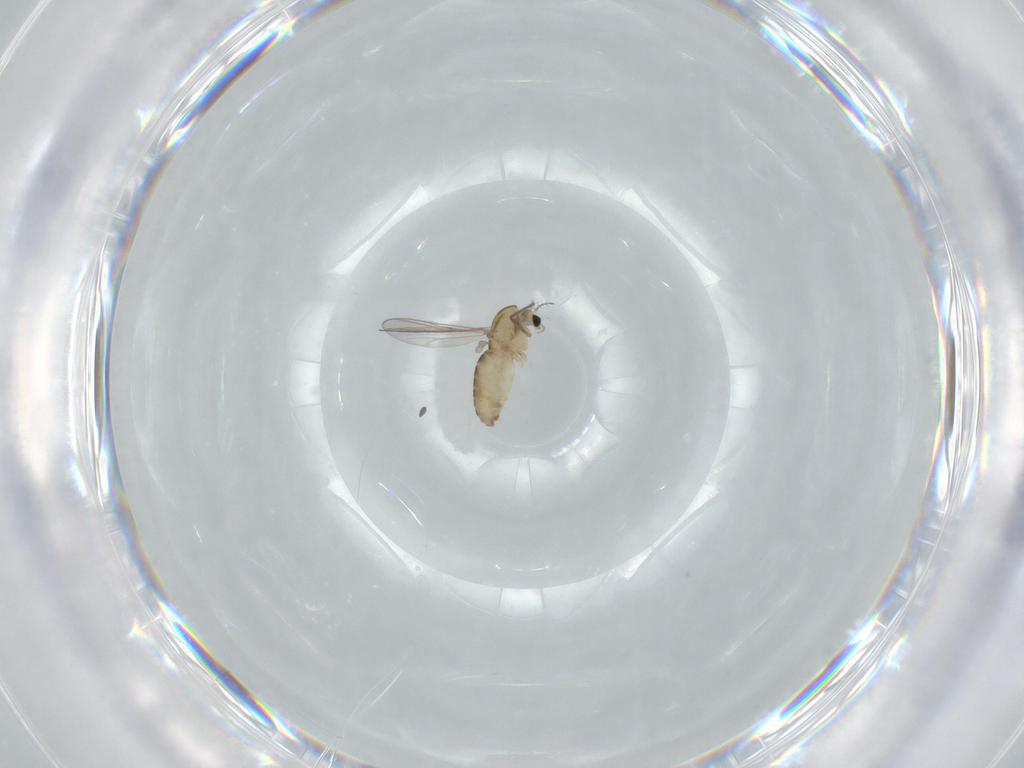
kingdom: Animalia
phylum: Arthropoda
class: Insecta
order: Diptera
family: Chironomidae
